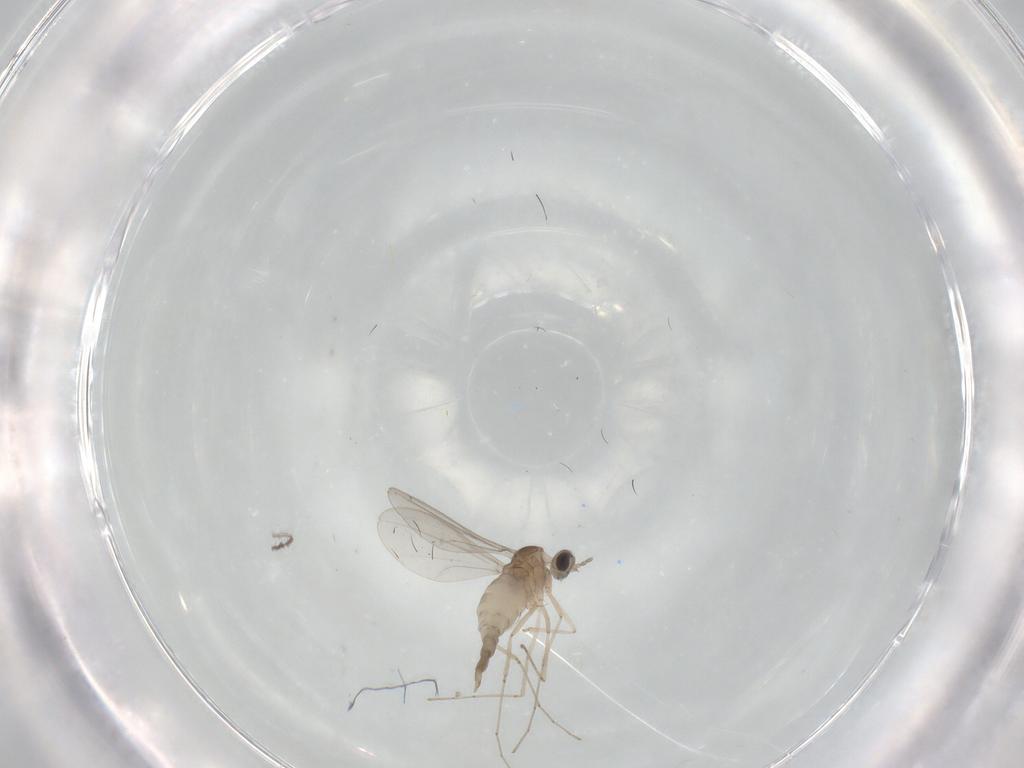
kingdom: Animalia
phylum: Arthropoda
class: Insecta
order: Diptera
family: Cecidomyiidae
